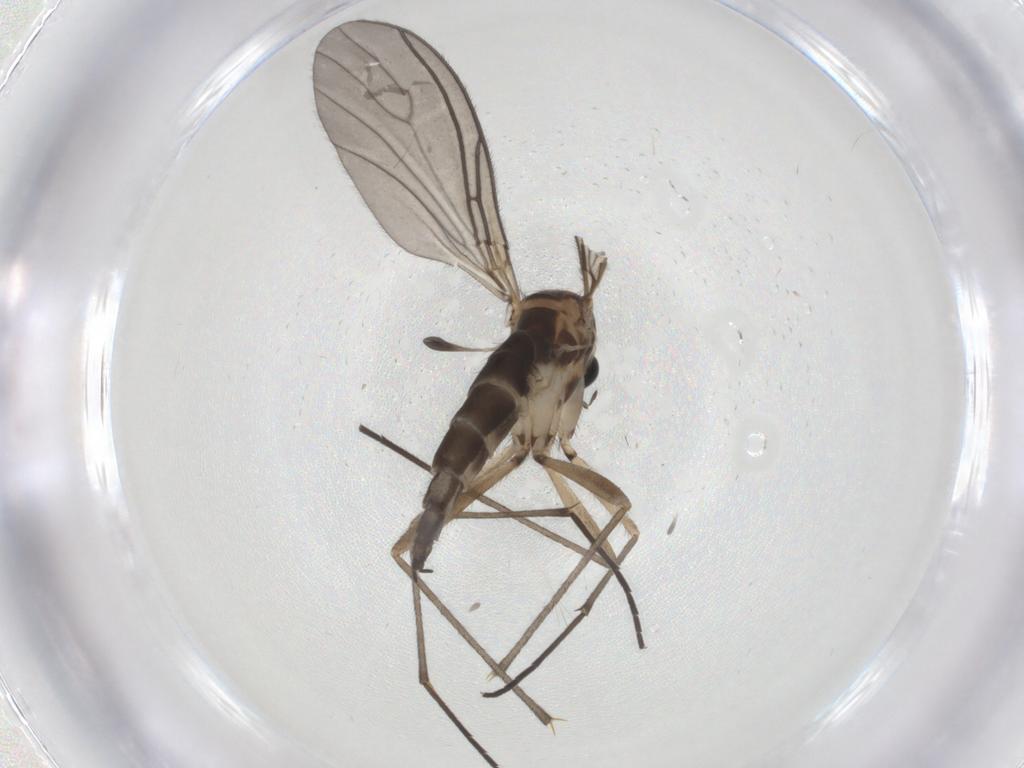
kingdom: Animalia
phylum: Arthropoda
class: Insecta
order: Diptera
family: Sciaridae
